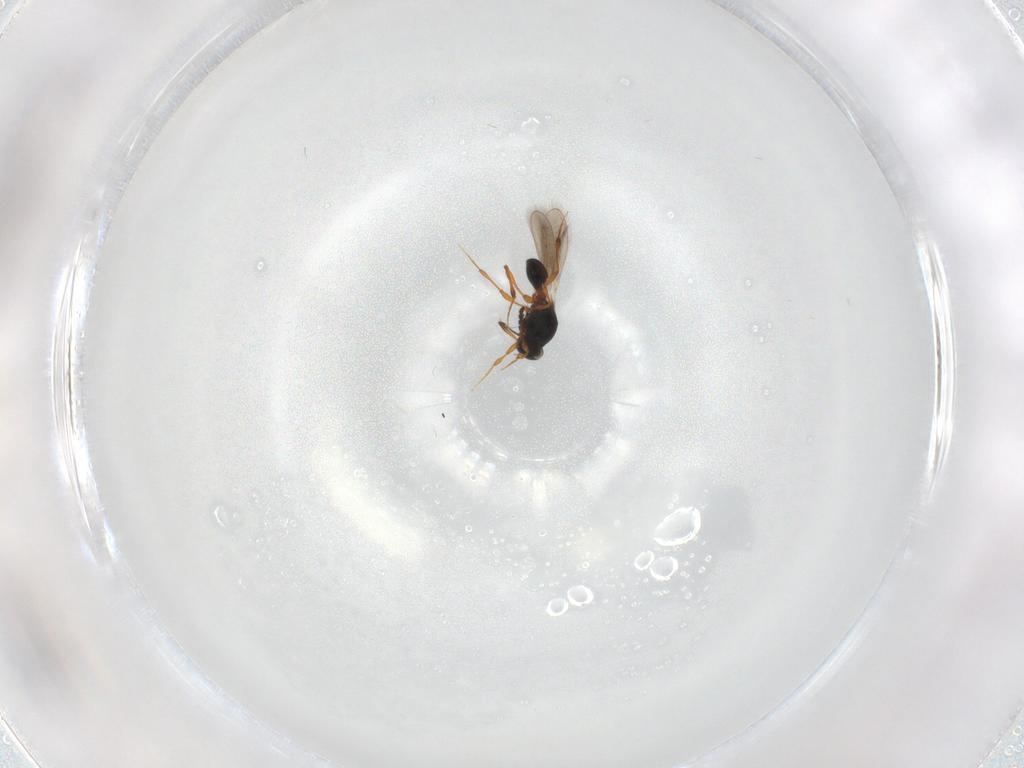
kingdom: Animalia
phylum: Arthropoda
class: Insecta
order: Hymenoptera
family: Platygastridae
